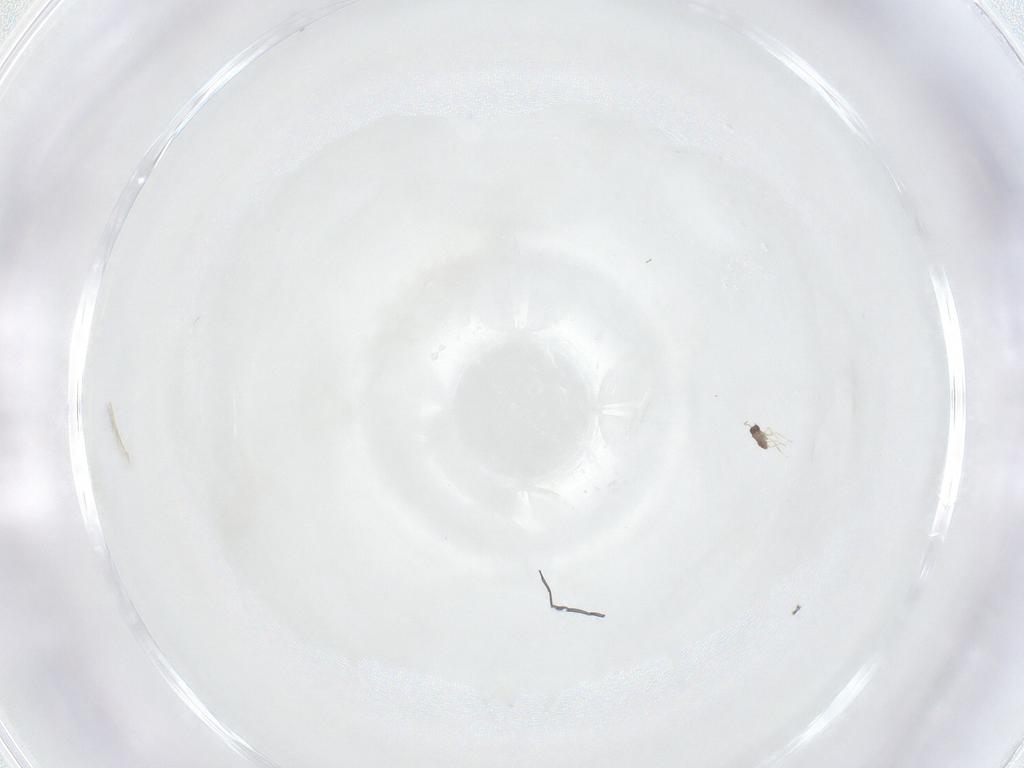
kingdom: Animalia
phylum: Arthropoda
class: Insecta
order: Hymenoptera
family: Mymaridae
